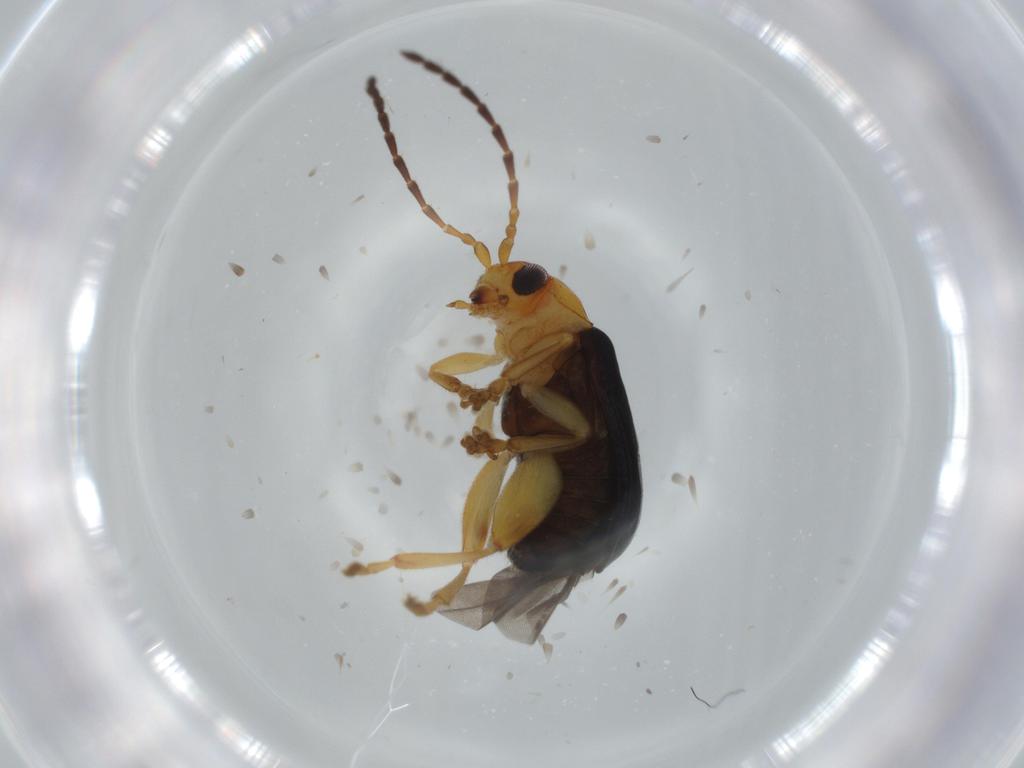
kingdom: Animalia
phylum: Arthropoda
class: Insecta
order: Coleoptera
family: Chrysomelidae
